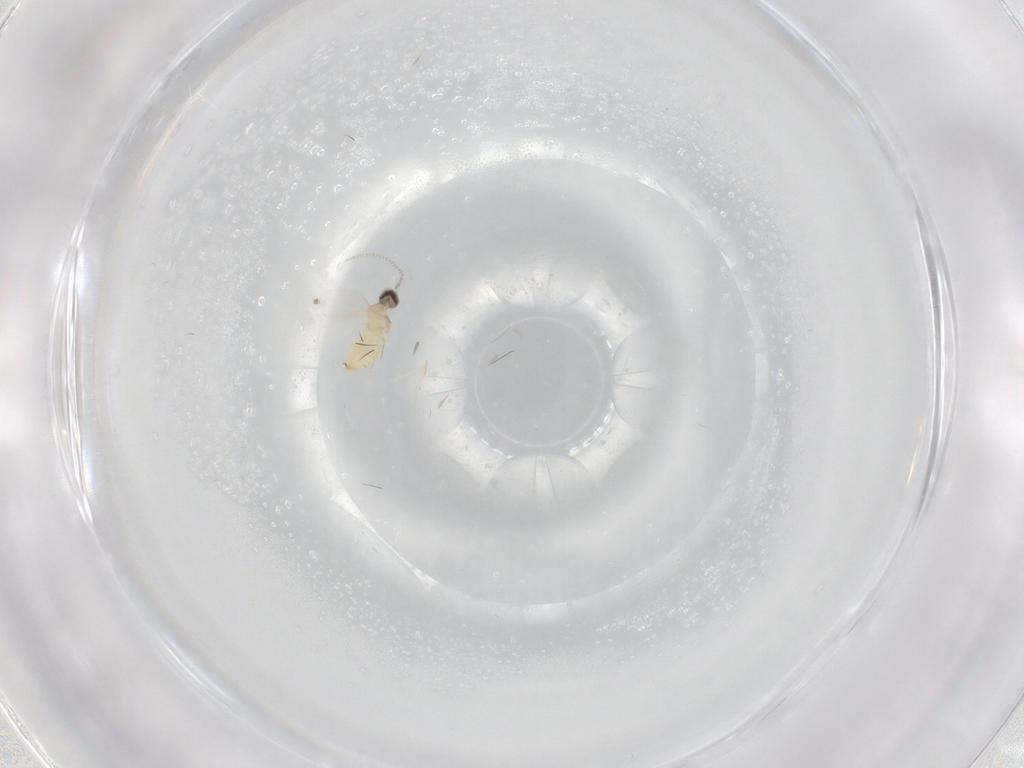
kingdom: Animalia
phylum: Arthropoda
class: Insecta
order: Diptera
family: Cecidomyiidae
